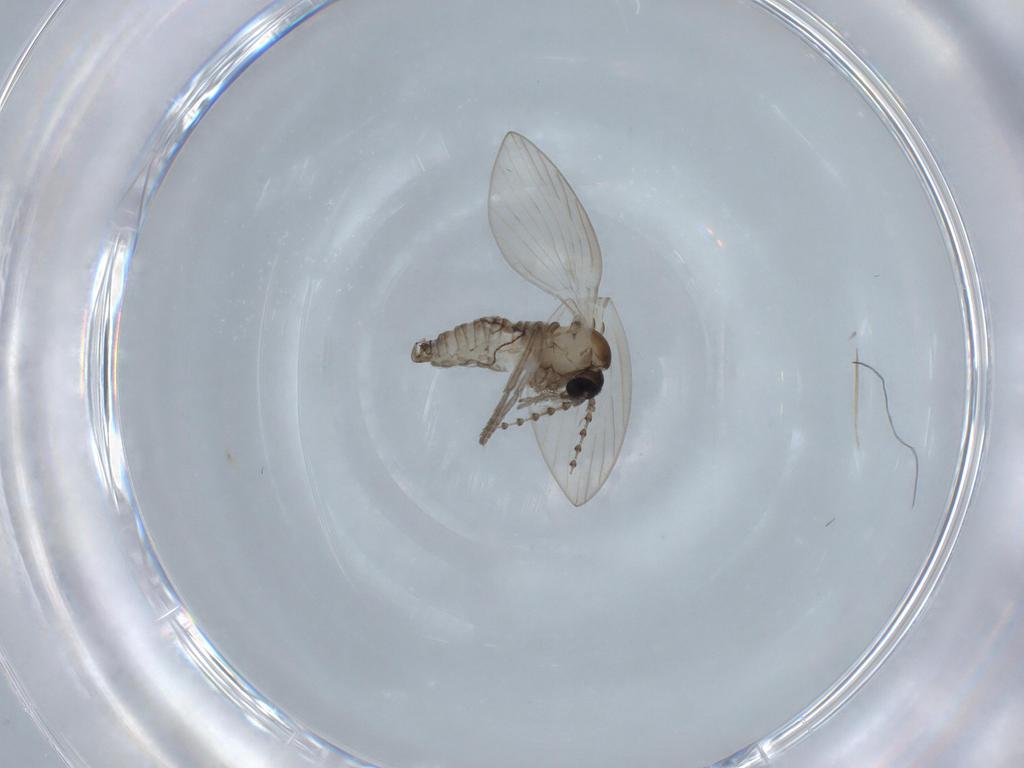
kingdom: Animalia
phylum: Arthropoda
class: Insecta
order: Diptera
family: Psychodidae
